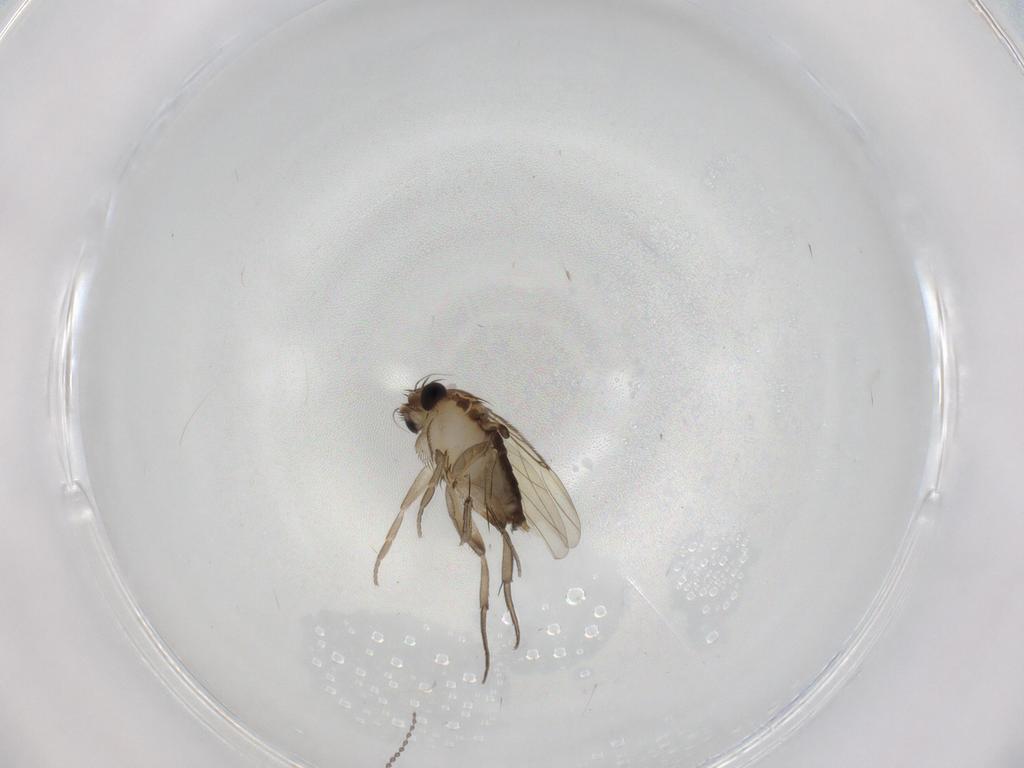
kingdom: Animalia
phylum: Arthropoda
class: Insecta
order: Diptera
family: Phoridae
